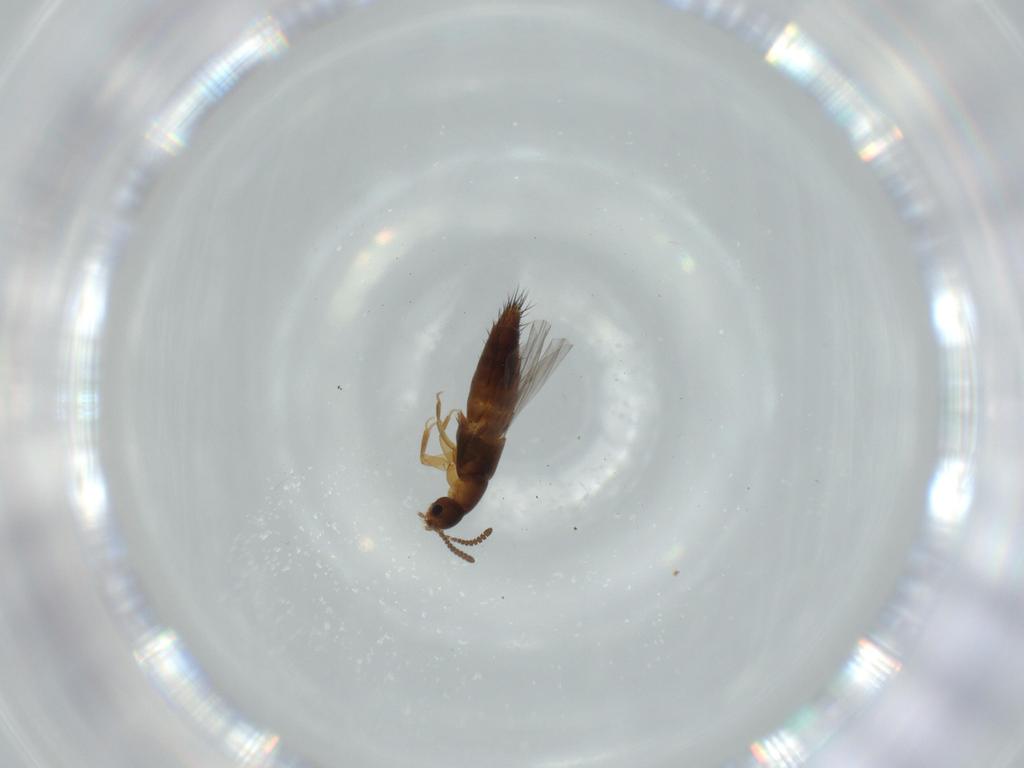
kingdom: Animalia
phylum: Arthropoda
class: Insecta
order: Coleoptera
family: Staphylinidae
